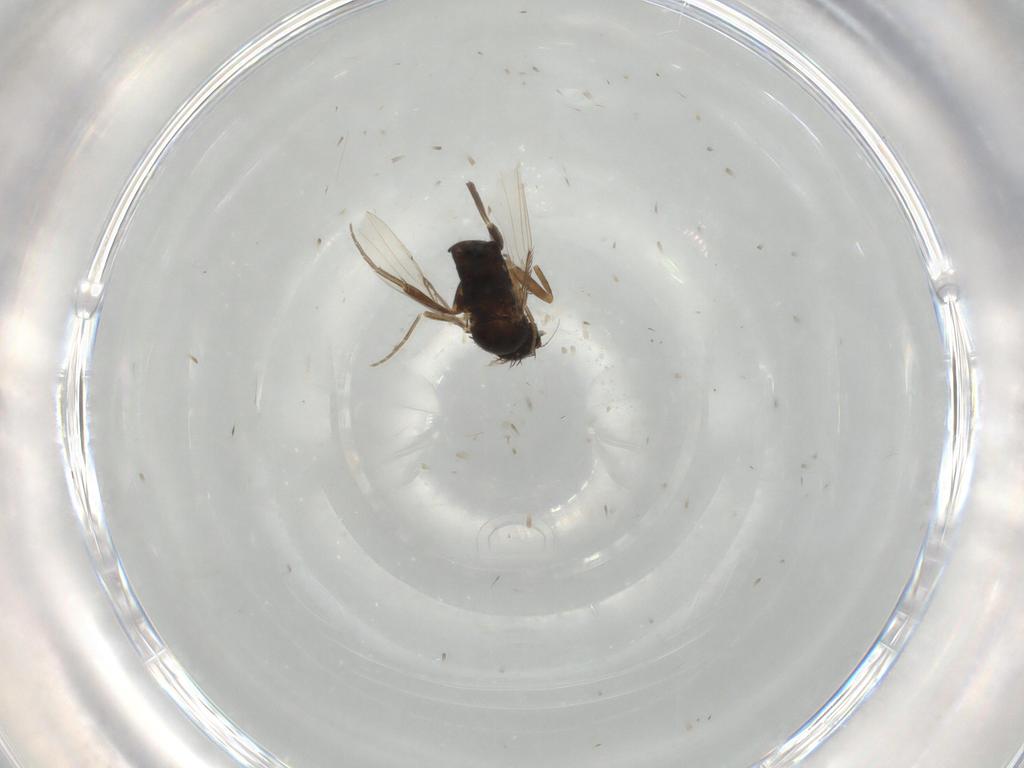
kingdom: Animalia
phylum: Arthropoda
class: Insecta
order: Diptera
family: Phoridae
